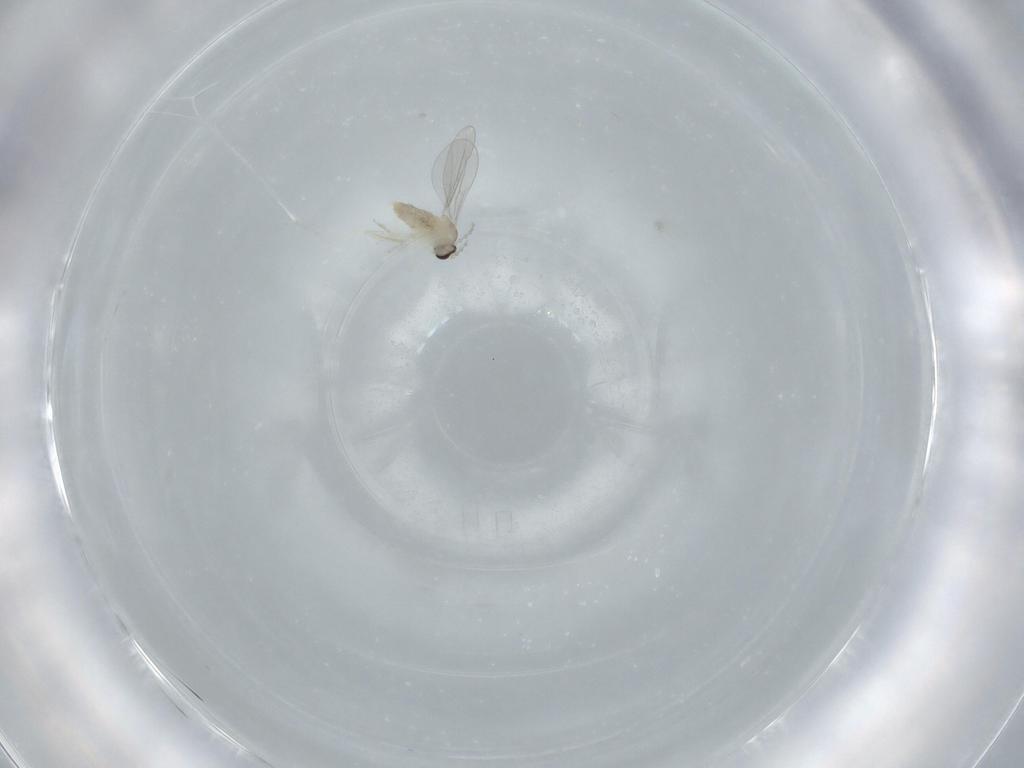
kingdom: Animalia
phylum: Arthropoda
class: Insecta
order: Diptera
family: Cecidomyiidae
